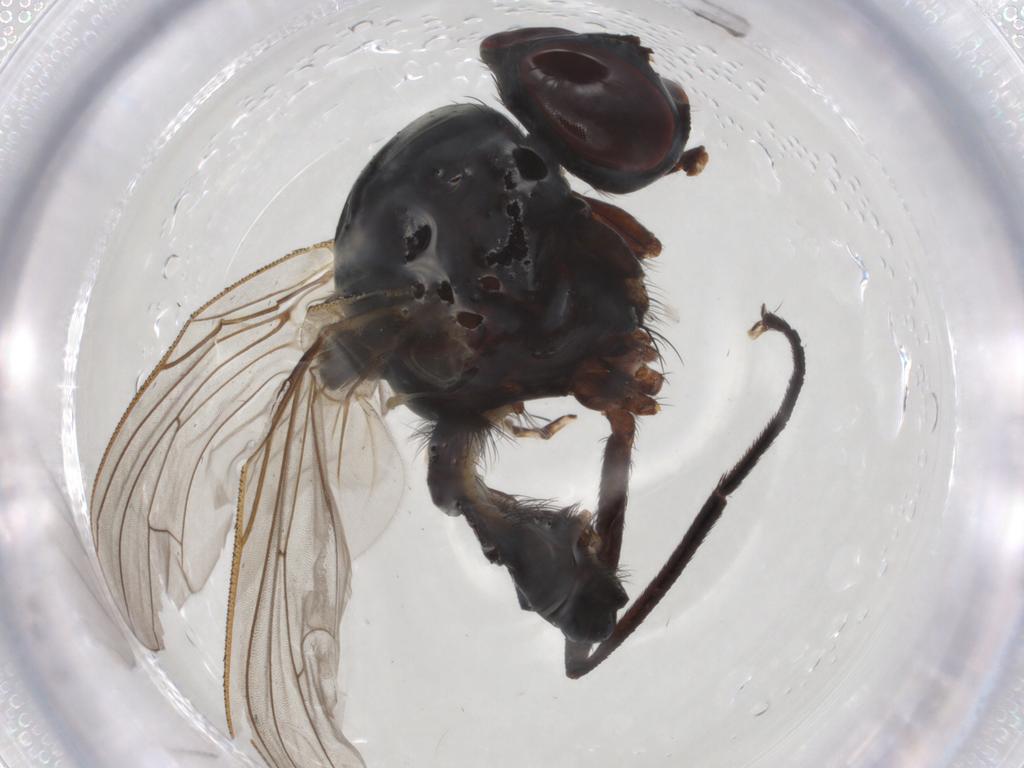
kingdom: Animalia
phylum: Arthropoda
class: Insecta
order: Diptera
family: Anthomyiidae
